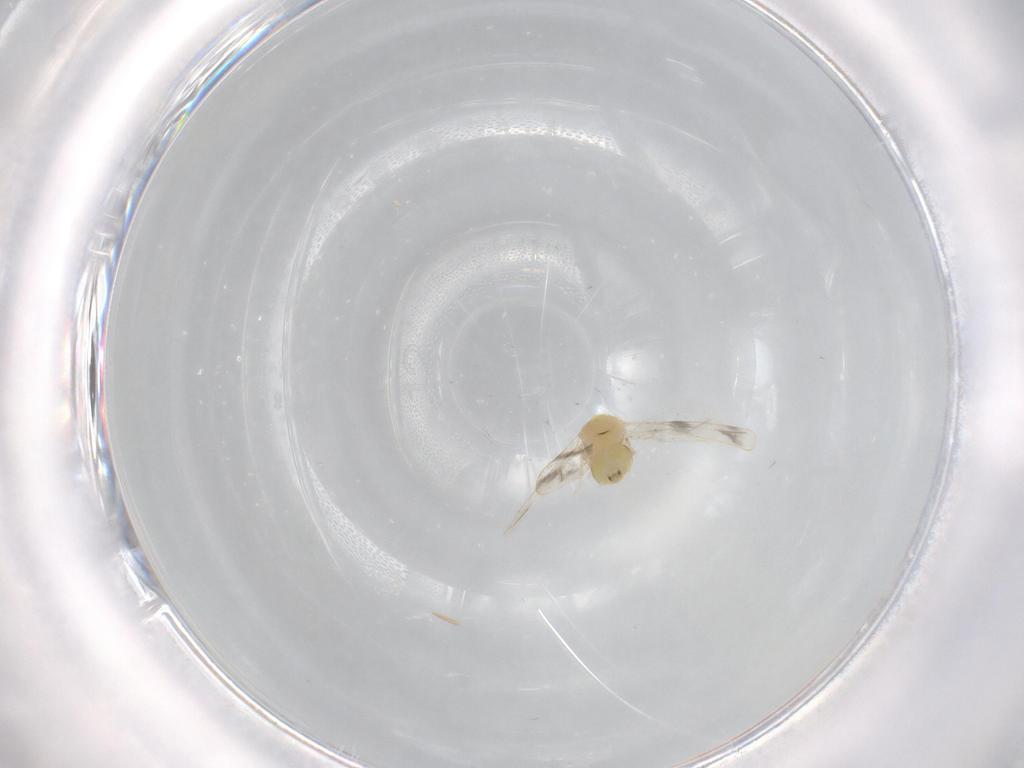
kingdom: Animalia
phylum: Arthropoda
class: Insecta
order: Hemiptera
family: Aleyrodidae
